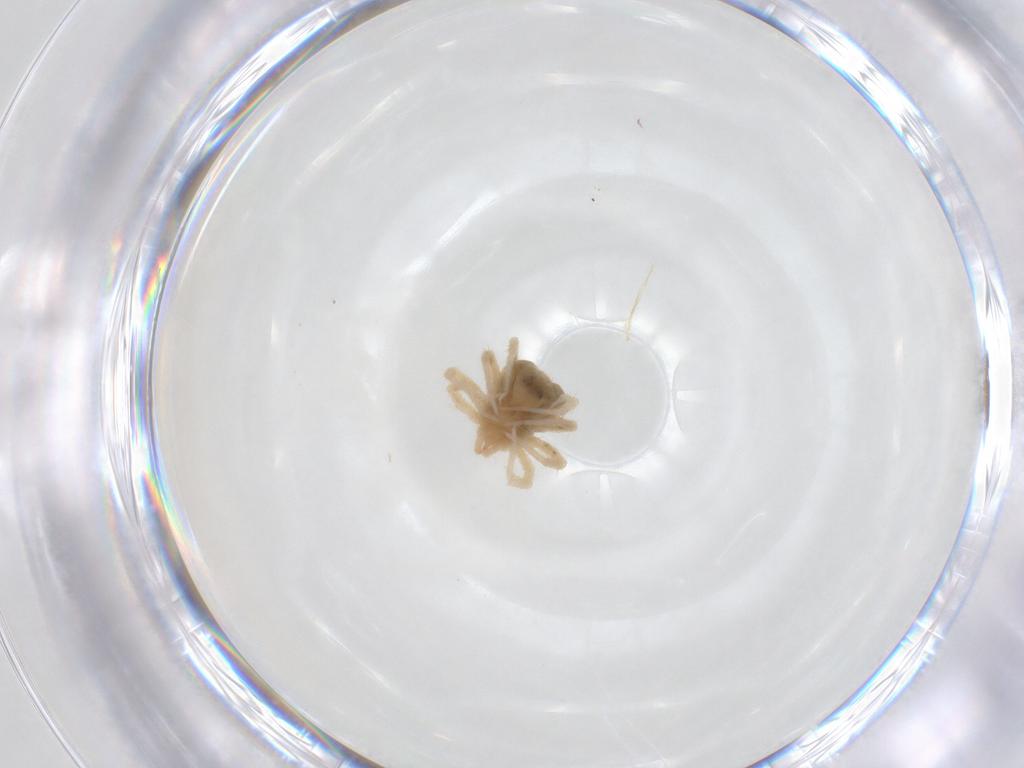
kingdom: Animalia
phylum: Arthropoda
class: Arachnida
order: Trombidiformes
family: Anystidae
